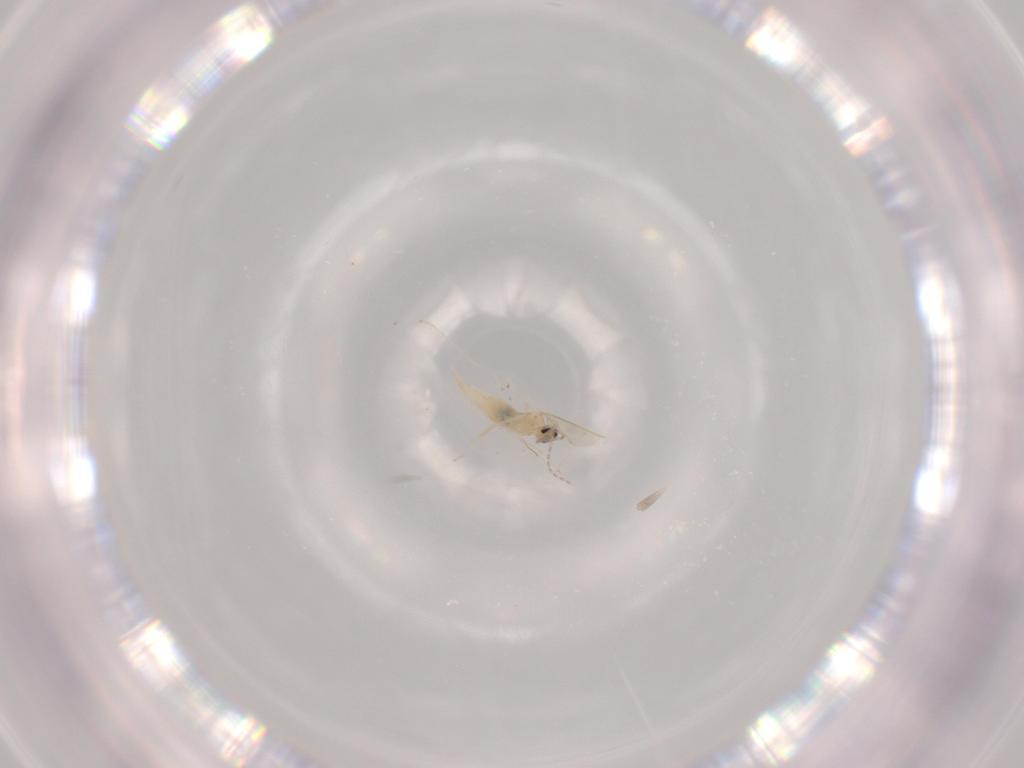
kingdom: Animalia
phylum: Arthropoda
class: Insecta
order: Diptera
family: Cecidomyiidae
